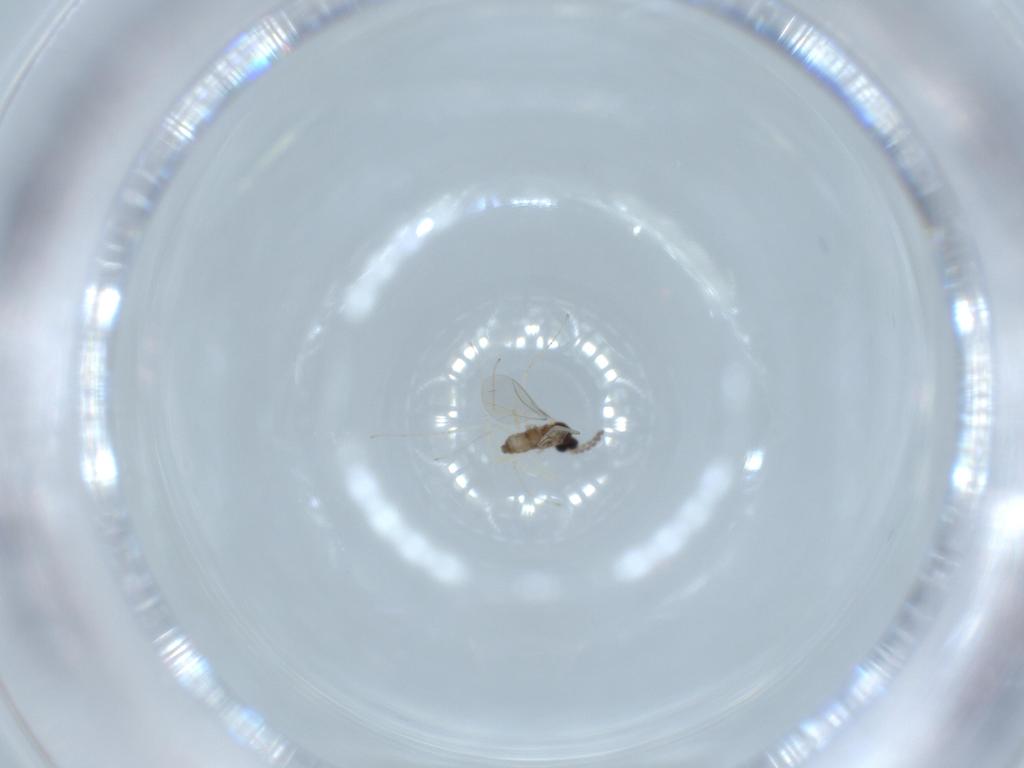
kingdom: Animalia
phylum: Arthropoda
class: Insecta
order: Diptera
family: Cecidomyiidae
